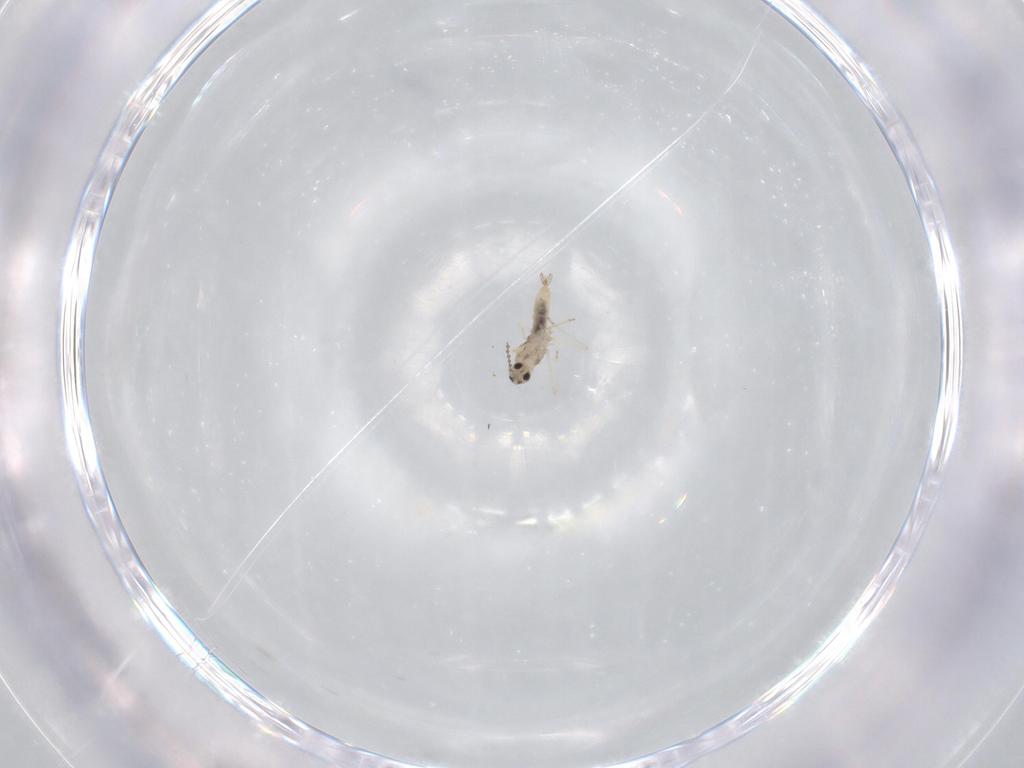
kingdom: Animalia
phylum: Arthropoda
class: Insecta
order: Diptera
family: Cecidomyiidae
